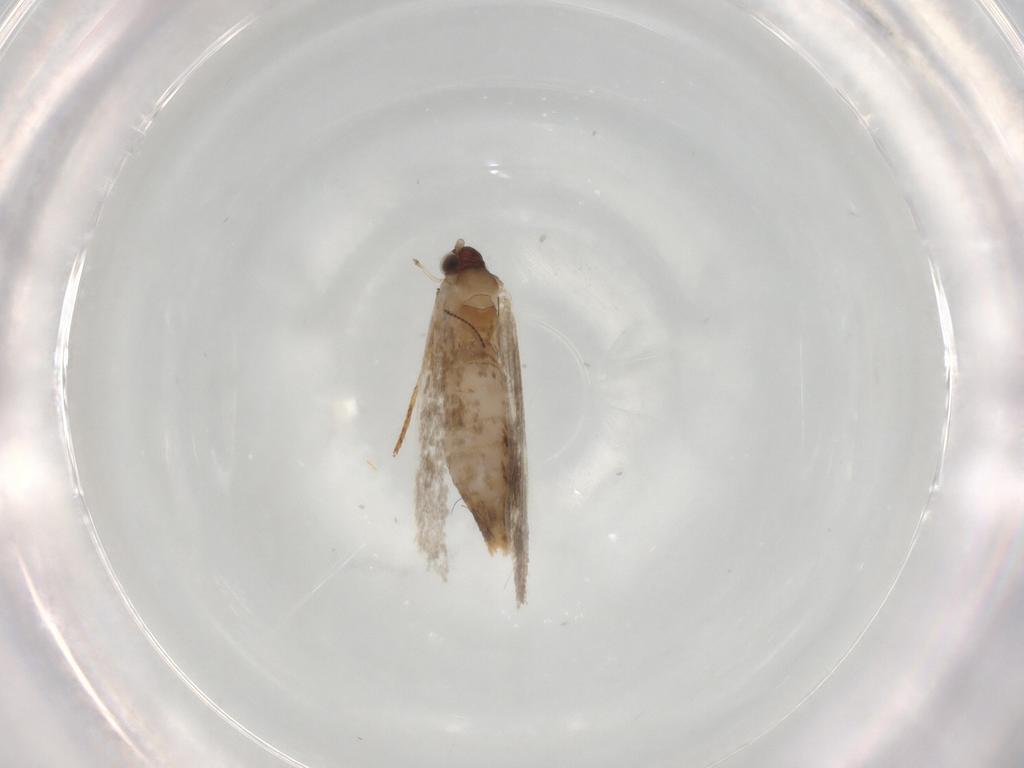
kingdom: Animalia
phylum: Arthropoda
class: Insecta
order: Lepidoptera
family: Tineidae
